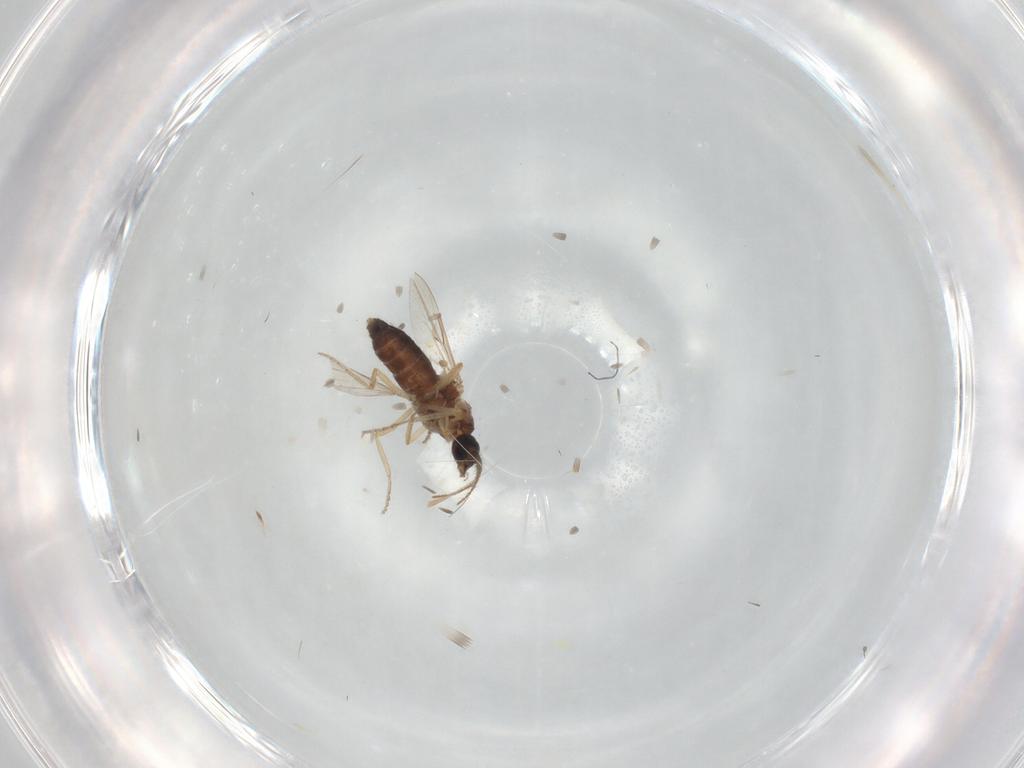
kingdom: Animalia
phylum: Arthropoda
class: Insecta
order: Diptera
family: Ceratopogonidae
